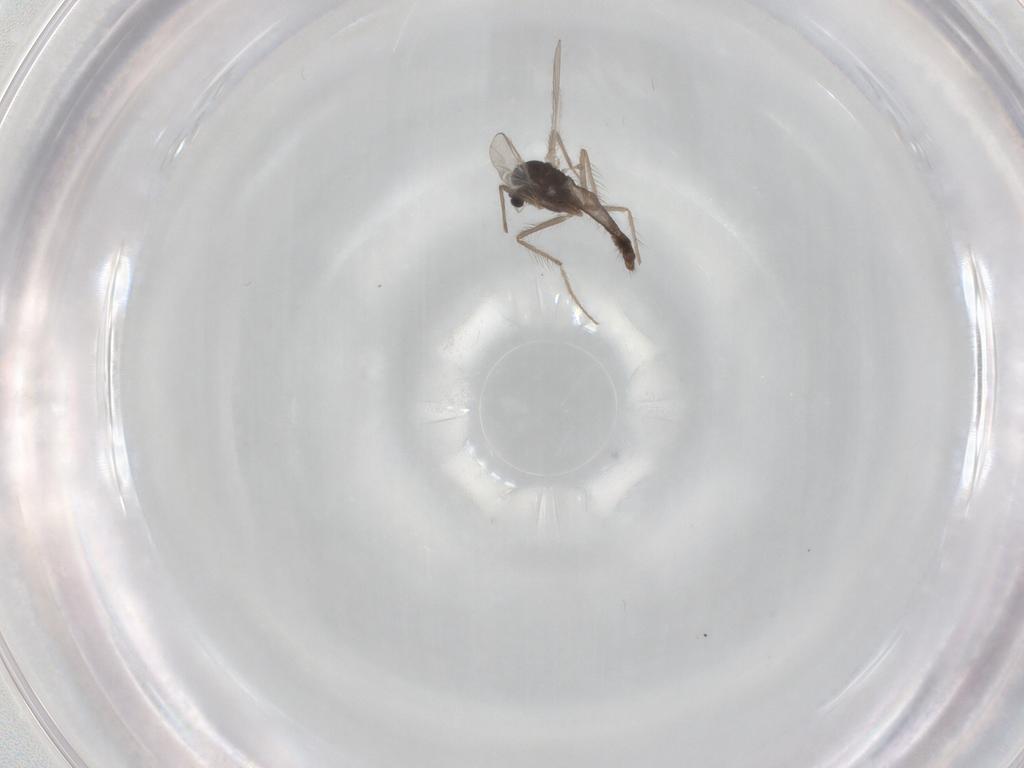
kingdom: Animalia
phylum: Arthropoda
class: Insecta
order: Diptera
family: Chironomidae
